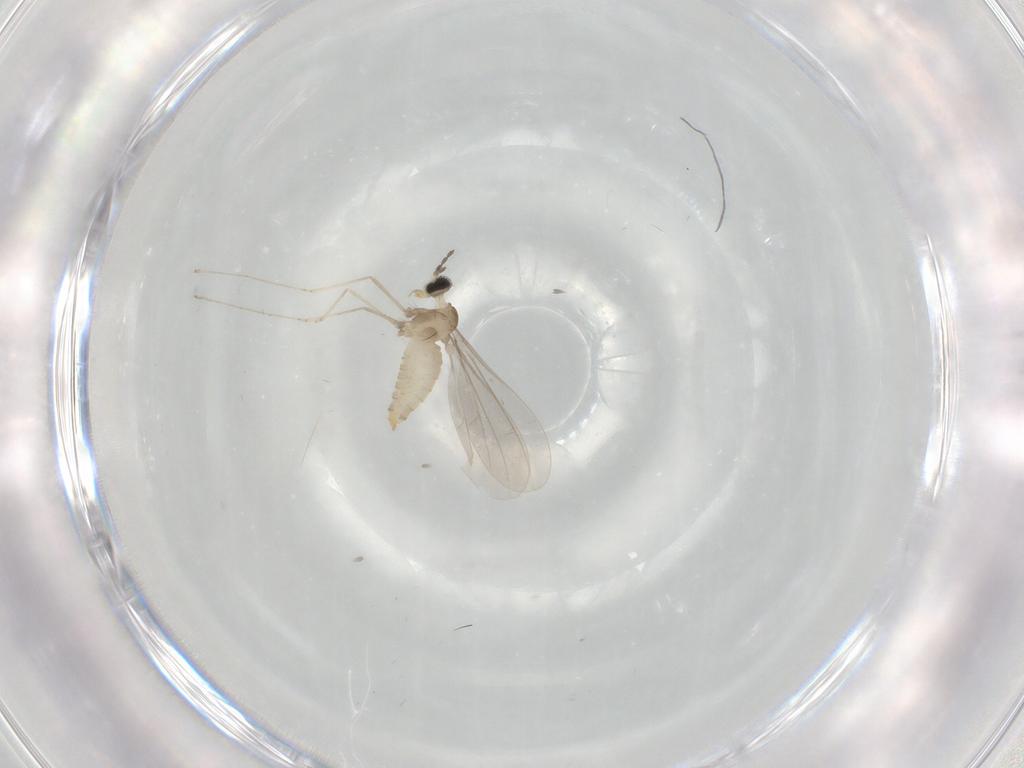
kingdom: Animalia
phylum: Arthropoda
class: Insecta
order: Diptera
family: Cecidomyiidae
